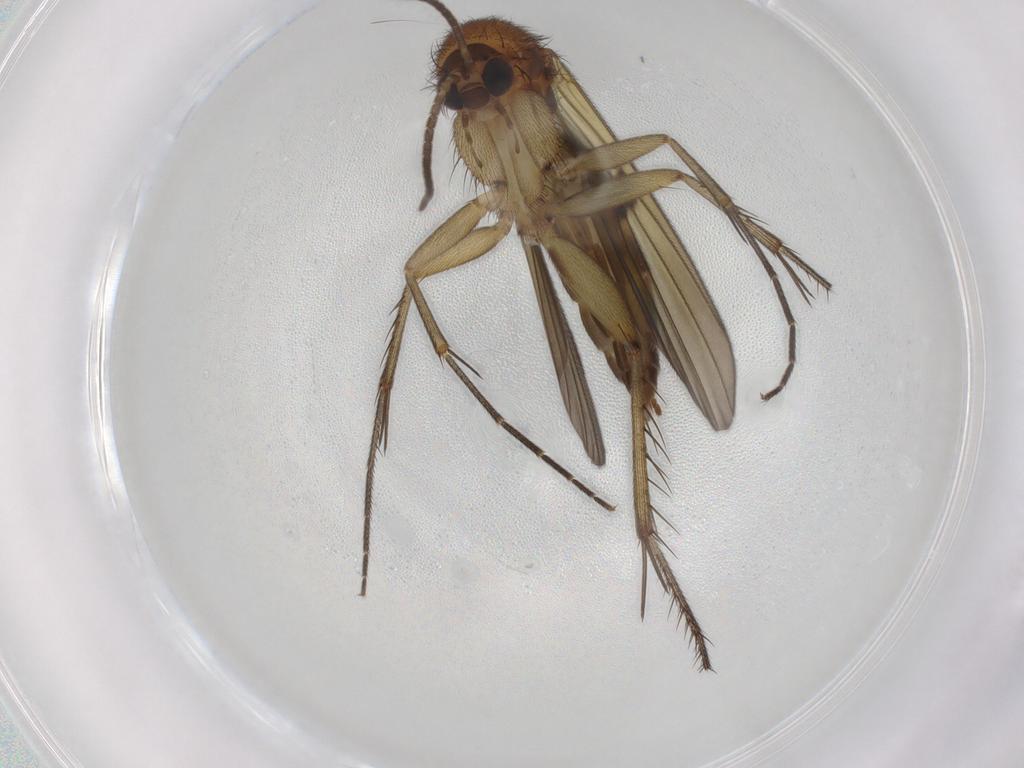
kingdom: Animalia
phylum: Arthropoda
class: Insecta
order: Diptera
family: Mycetophilidae
